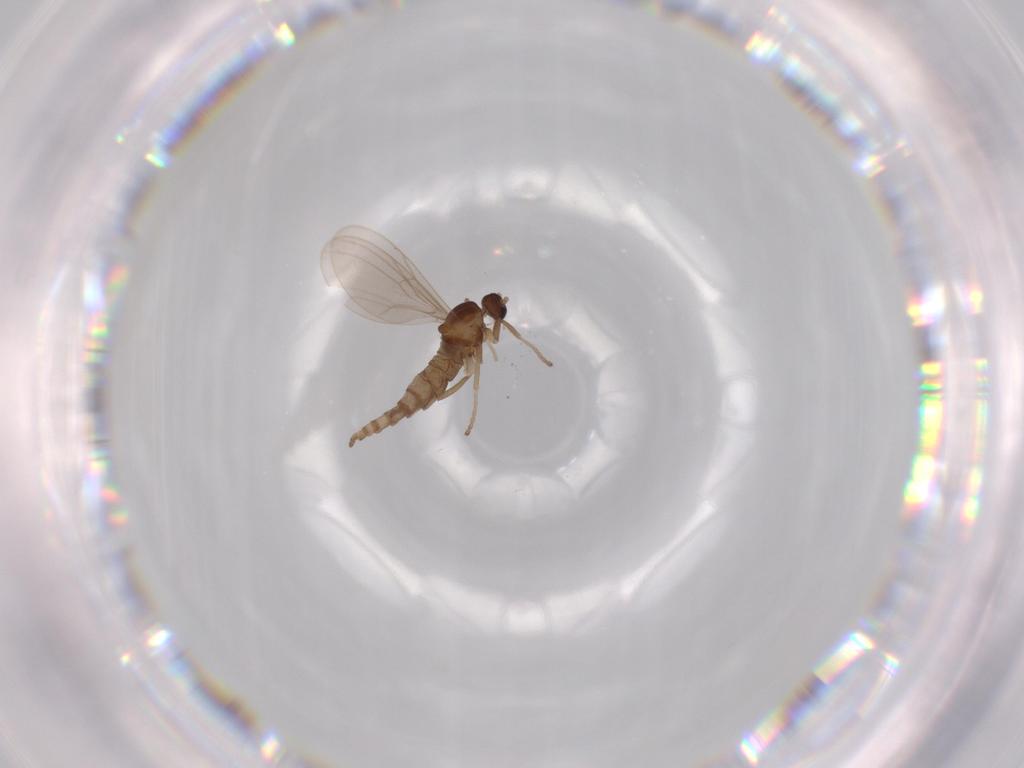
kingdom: Animalia
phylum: Arthropoda
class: Insecta
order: Diptera
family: Cecidomyiidae
